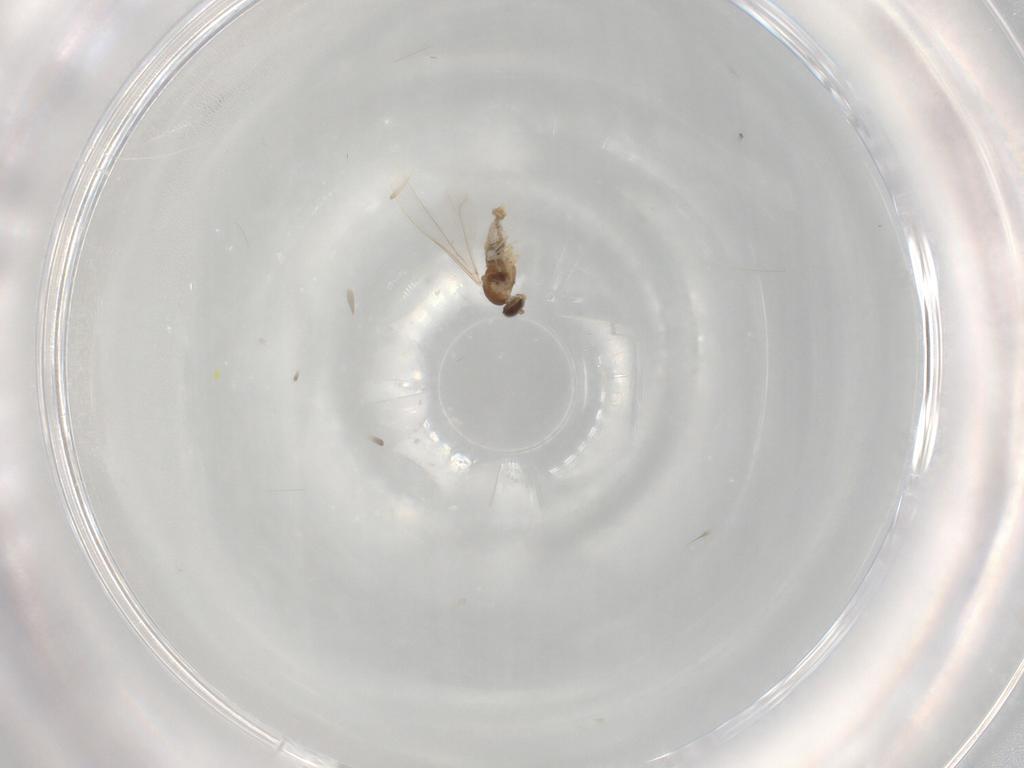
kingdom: Animalia
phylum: Arthropoda
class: Insecta
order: Diptera
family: Cecidomyiidae
